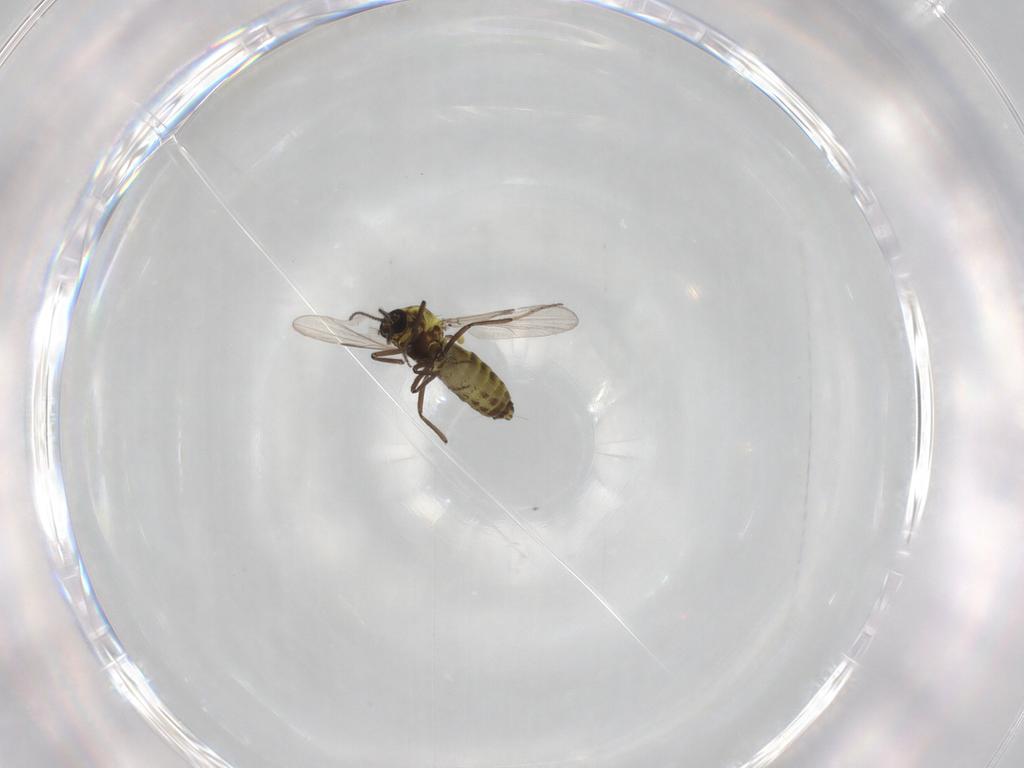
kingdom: Animalia
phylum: Arthropoda
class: Insecta
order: Diptera
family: Ceratopogonidae
